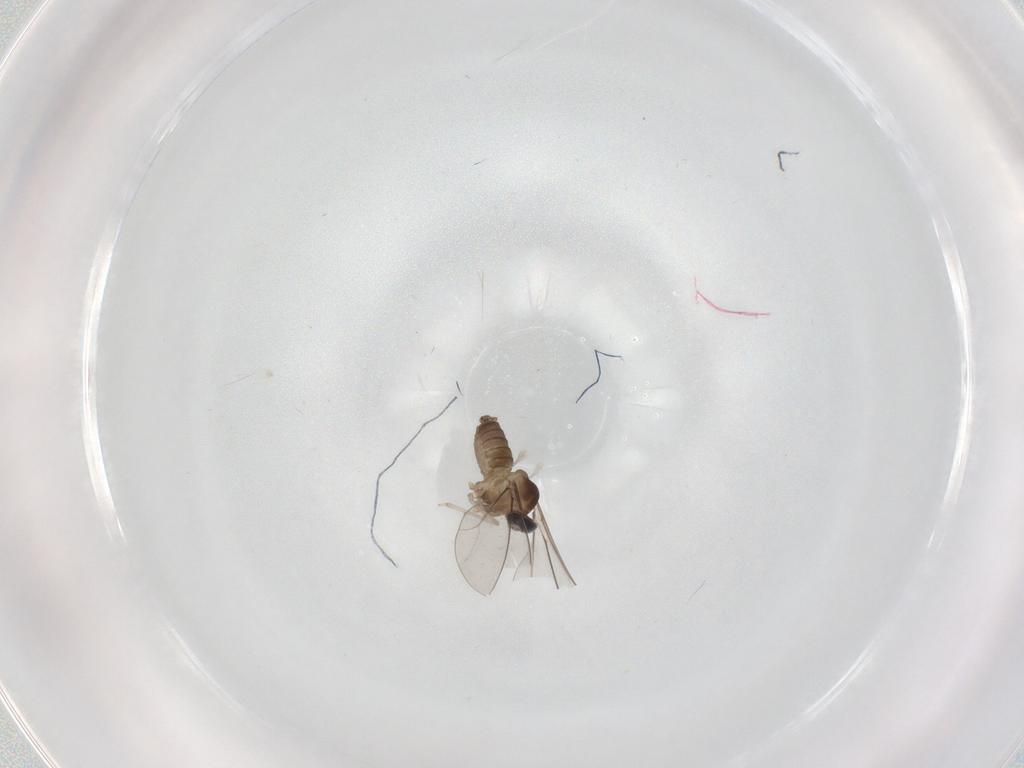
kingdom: Animalia
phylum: Arthropoda
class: Insecta
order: Diptera
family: Cecidomyiidae
